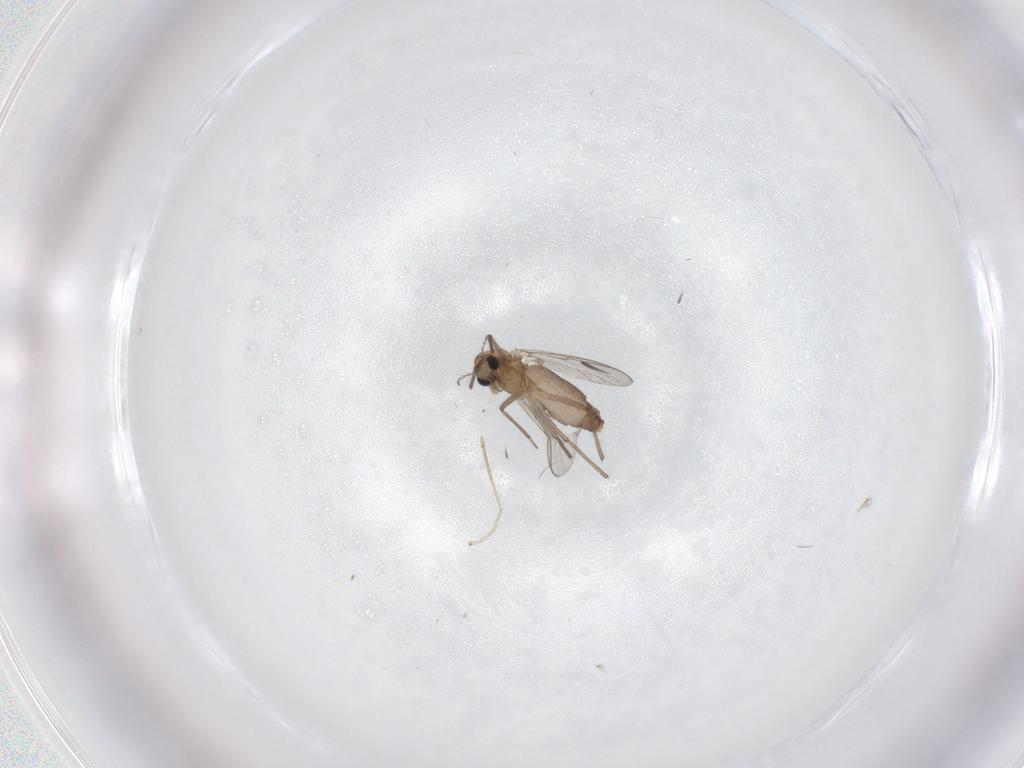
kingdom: Animalia
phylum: Arthropoda
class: Insecta
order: Diptera
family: Chironomidae
